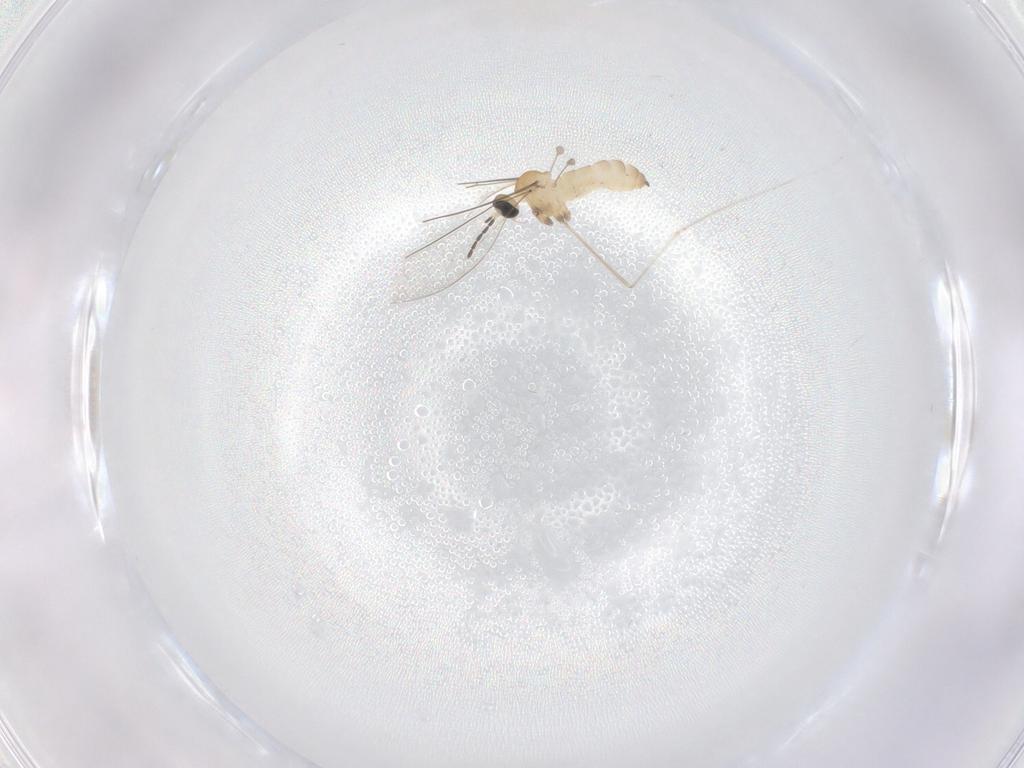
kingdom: Animalia
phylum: Arthropoda
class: Insecta
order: Diptera
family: Cecidomyiidae
